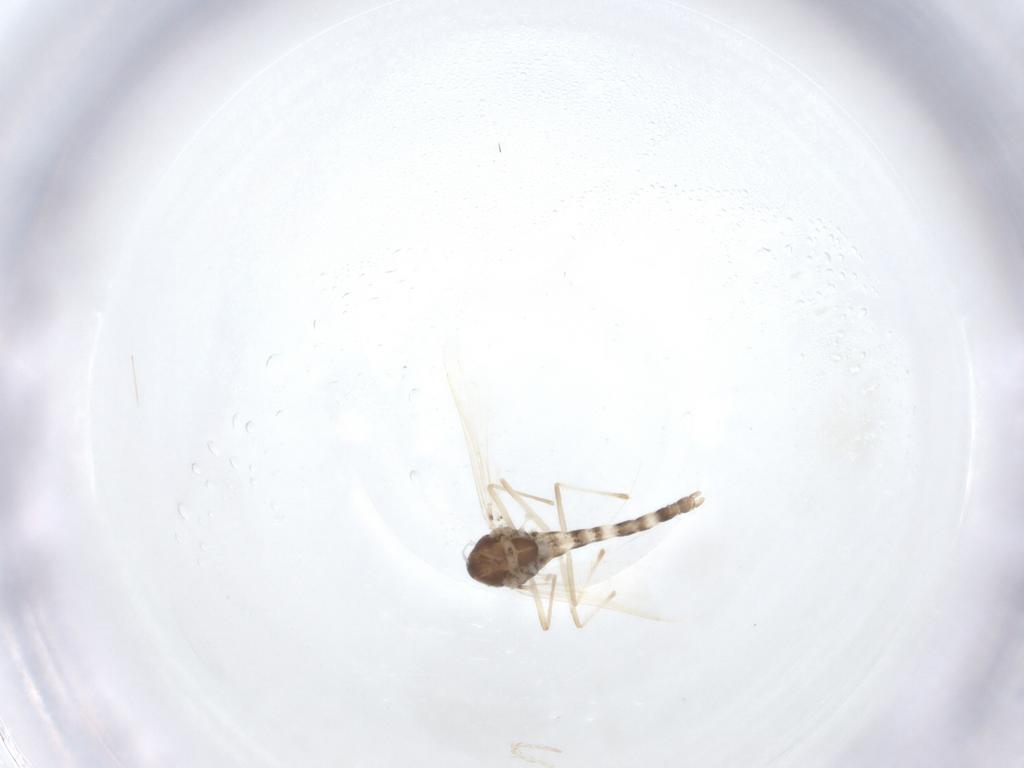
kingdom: Animalia
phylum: Arthropoda
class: Insecta
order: Diptera
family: Chironomidae
